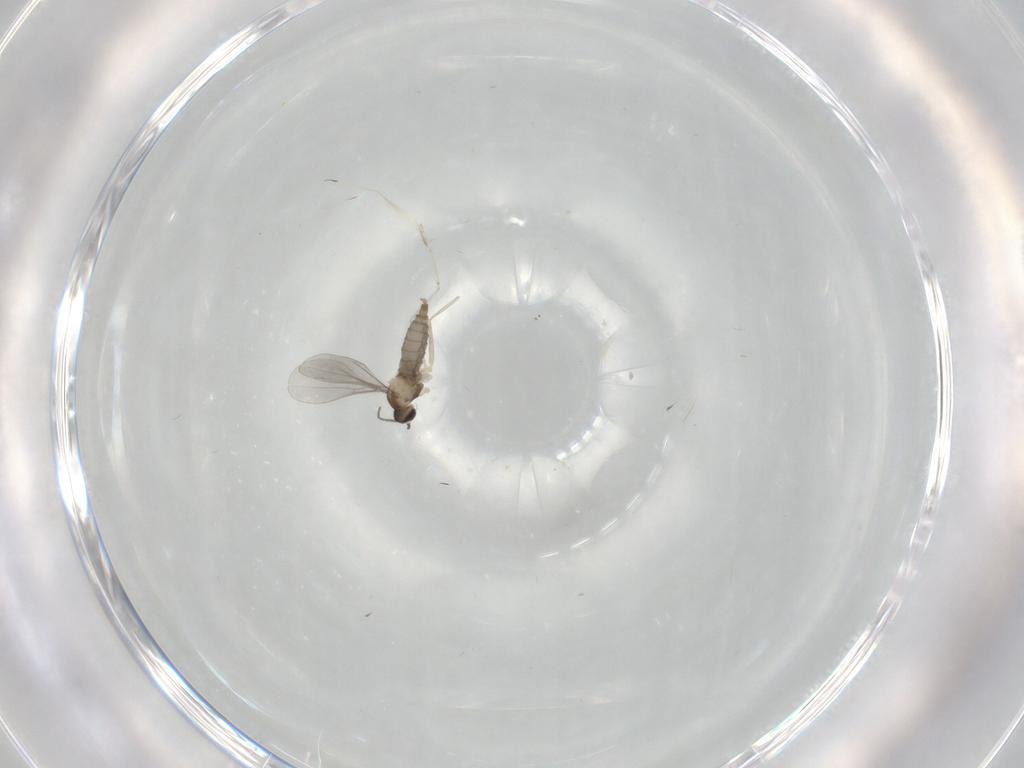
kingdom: Animalia
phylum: Arthropoda
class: Insecta
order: Diptera
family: Cecidomyiidae
